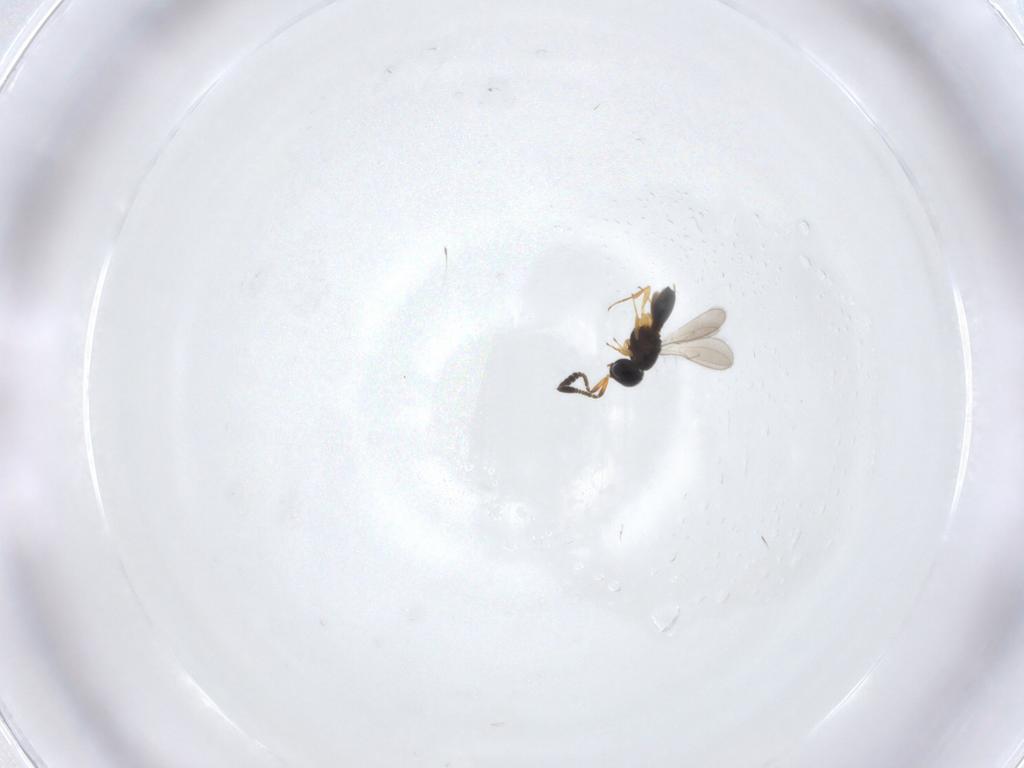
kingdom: Animalia
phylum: Arthropoda
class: Insecta
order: Hymenoptera
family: Scelionidae
